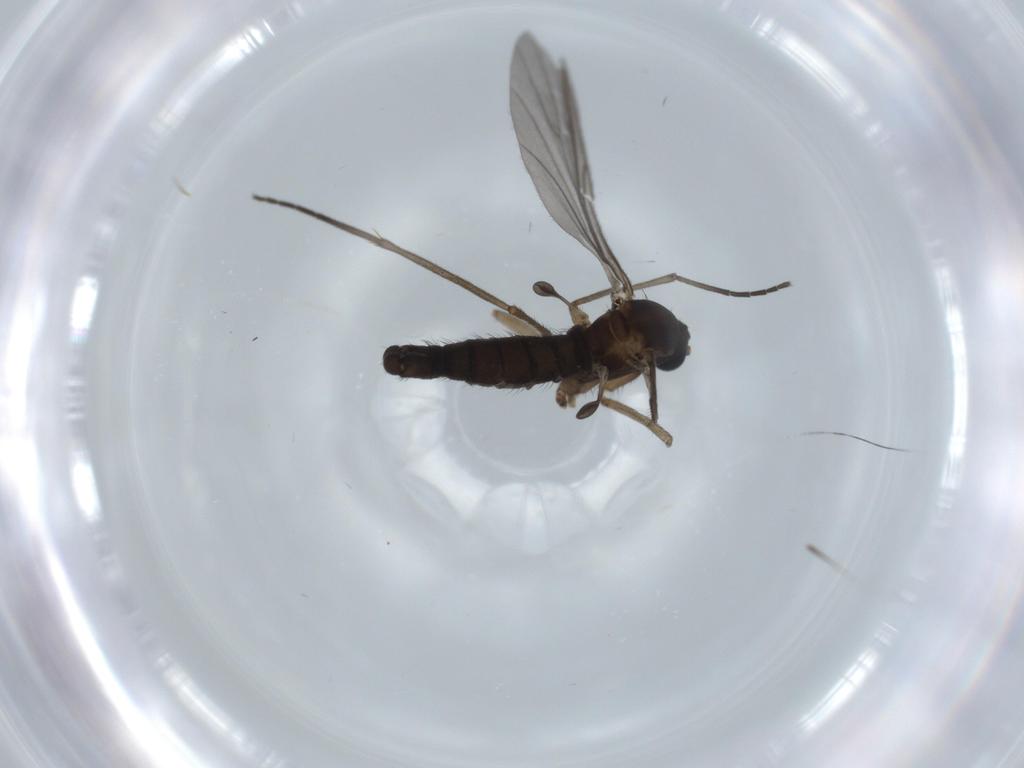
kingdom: Animalia
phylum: Arthropoda
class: Insecta
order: Diptera
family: Sciaridae
